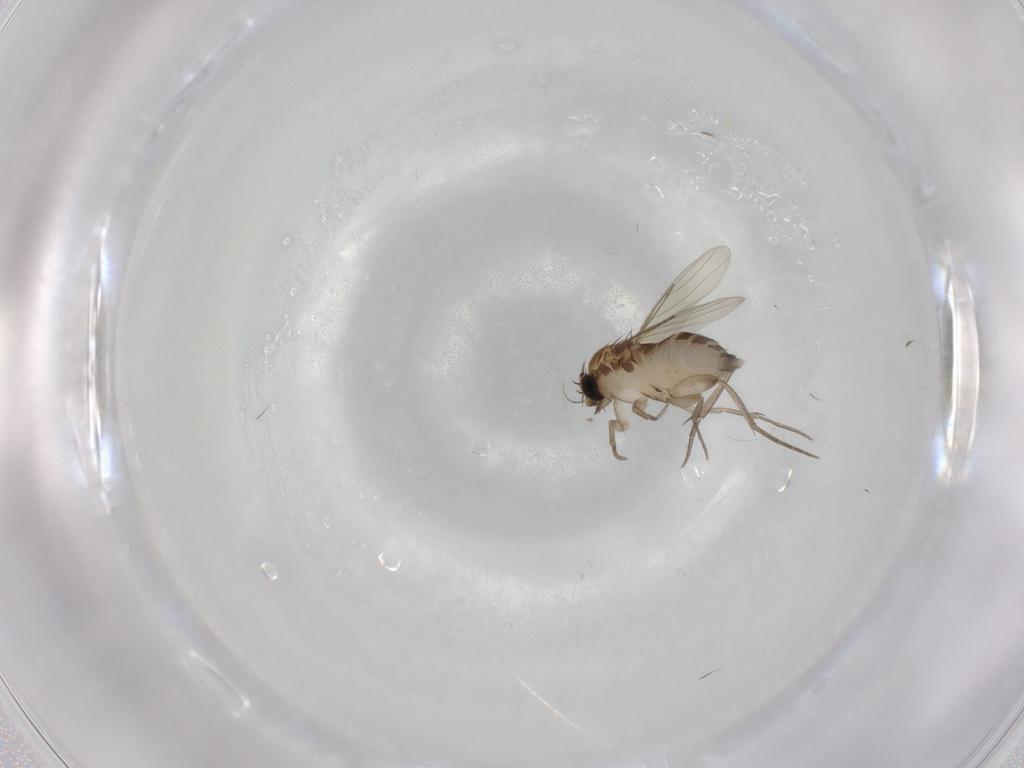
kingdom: Animalia
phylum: Arthropoda
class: Insecta
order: Diptera
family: Phoridae
